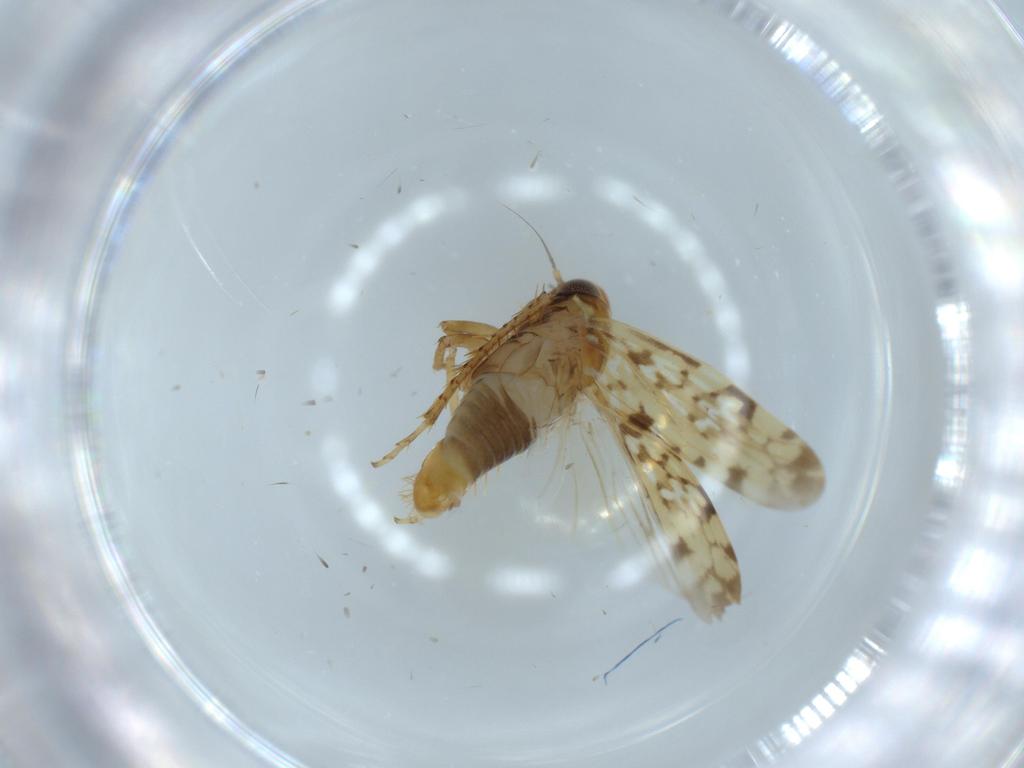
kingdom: Animalia
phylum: Arthropoda
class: Insecta
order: Hemiptera
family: Cicadellidae
